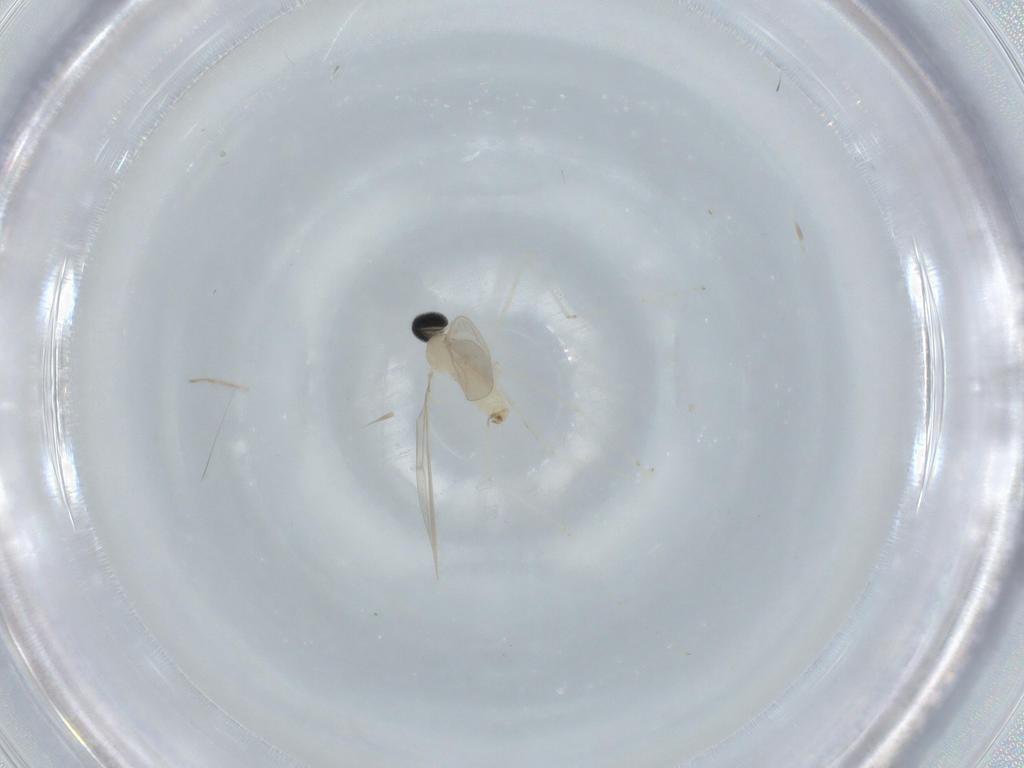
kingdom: Animalia
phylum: Arthropoda
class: Insecta
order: Diptera
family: Cecidomyiidae
